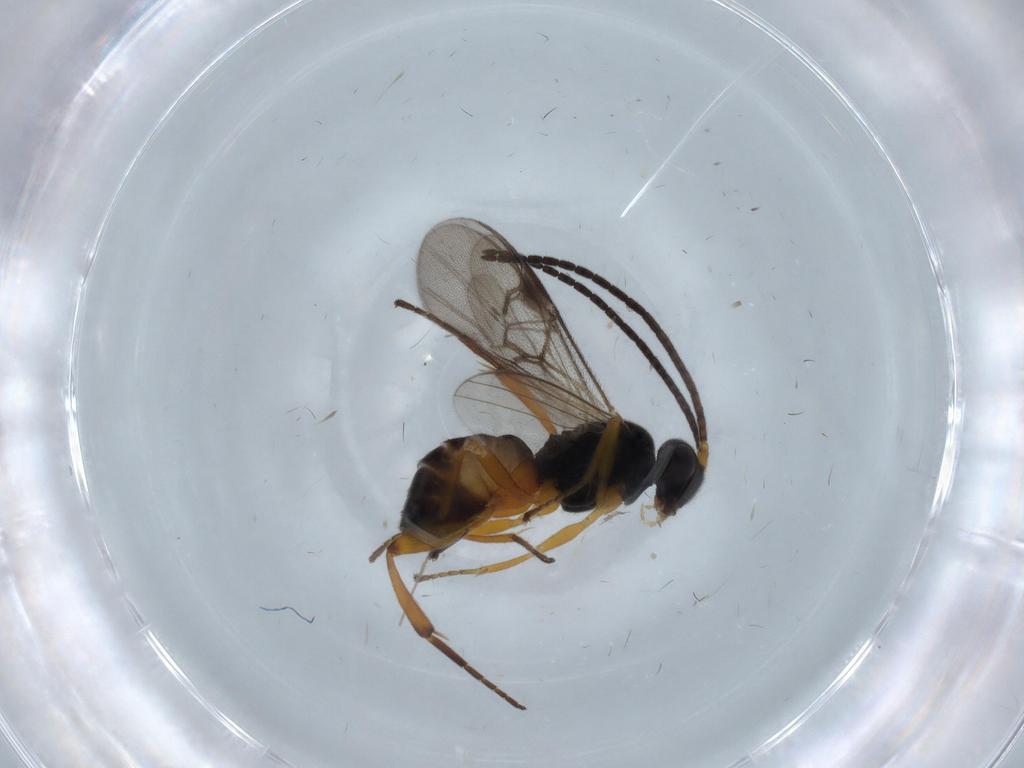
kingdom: Animalia
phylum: Arthropoda
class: Insecta
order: Hymenoptera
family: Braconidae
